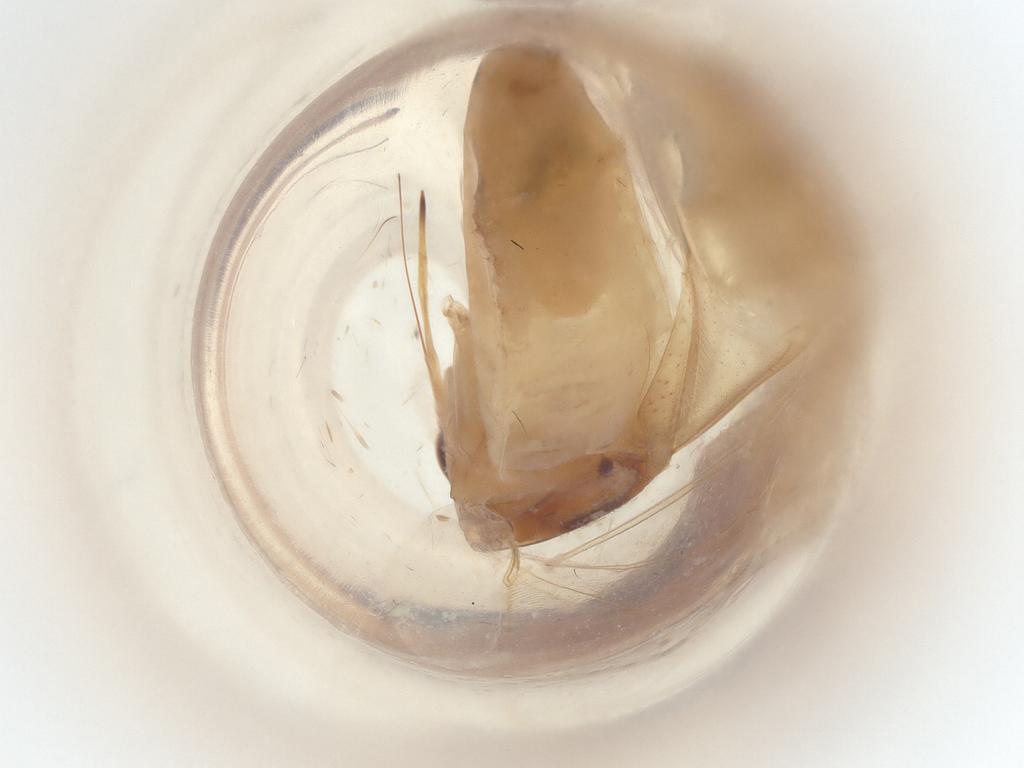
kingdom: Animalia
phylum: Arthropoda
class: Insecta
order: Hemiptera
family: Miridae
